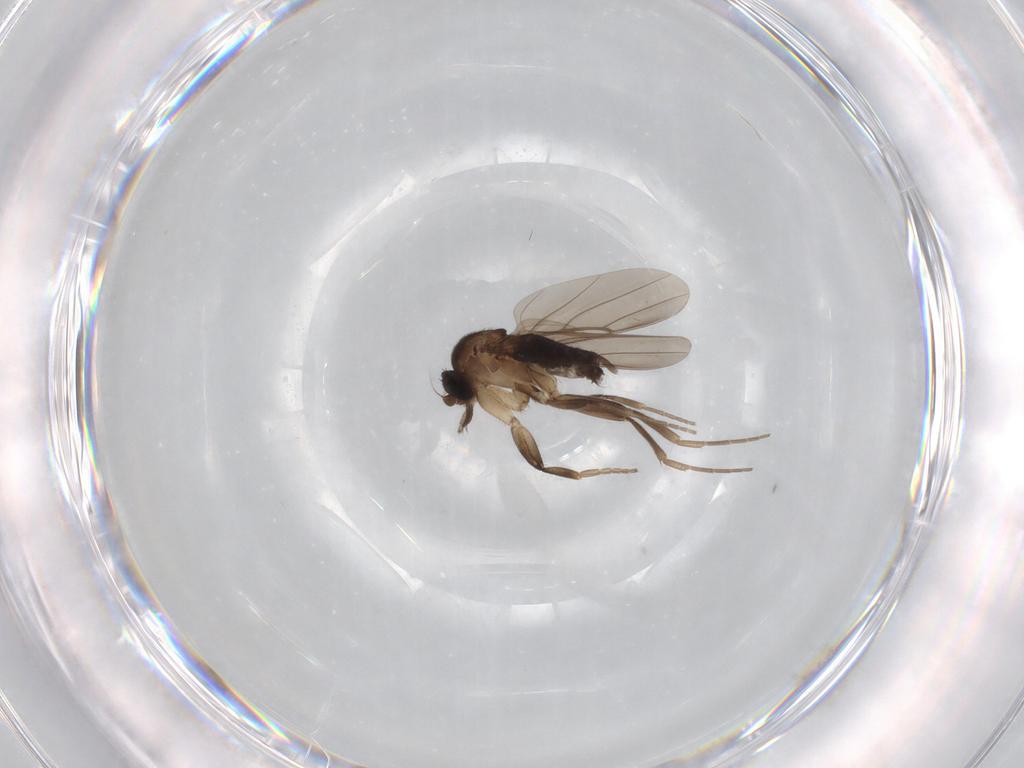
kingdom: Animalia
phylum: Arthropoda
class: Insecta
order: Diptera
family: Phoridae
